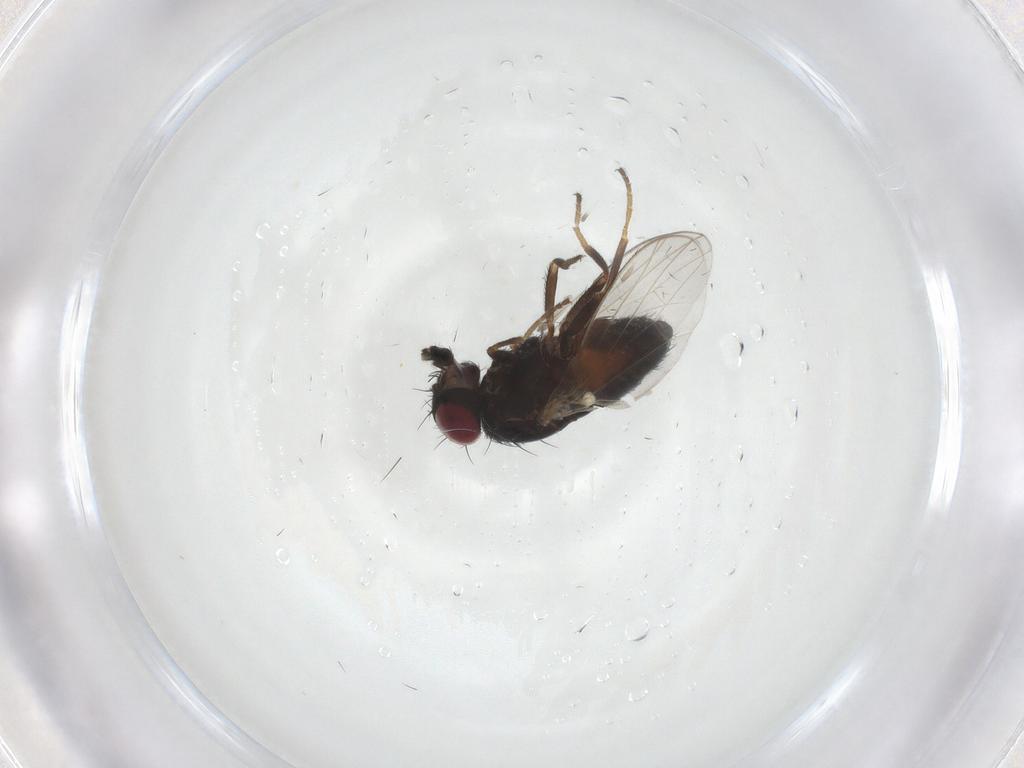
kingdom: Animalia
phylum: Arthropoda
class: Insecta
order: Diptera
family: Carnidae
